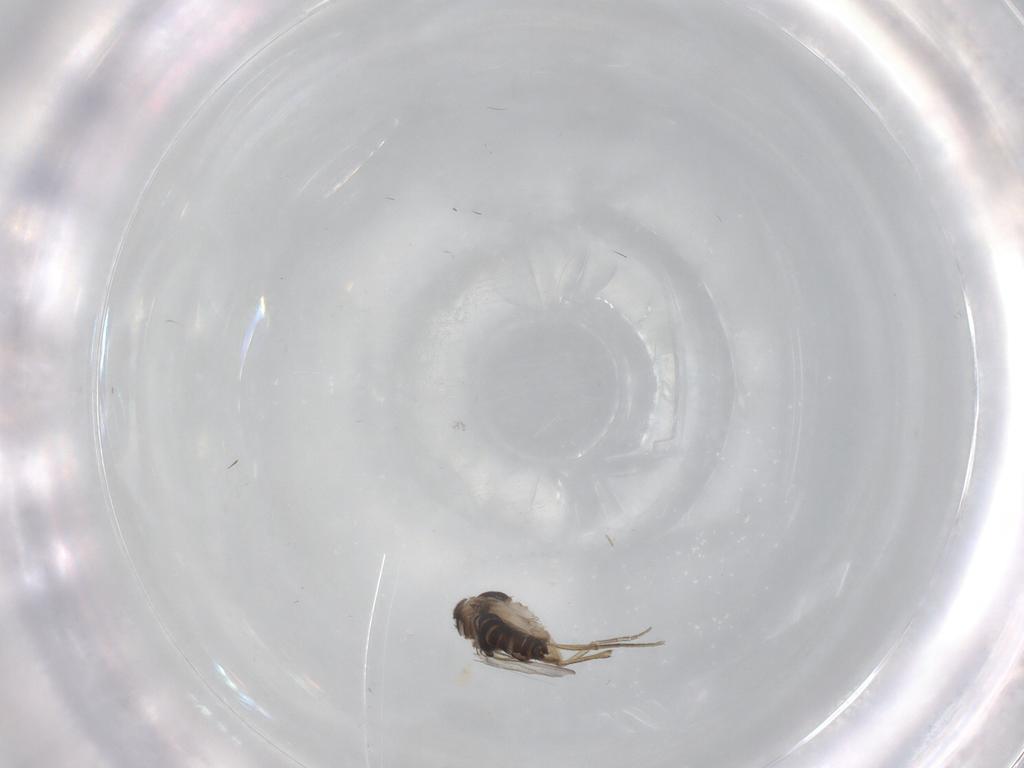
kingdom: Animalia
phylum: Arthropoda
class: Insecta
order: Diptera
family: Phoridae
